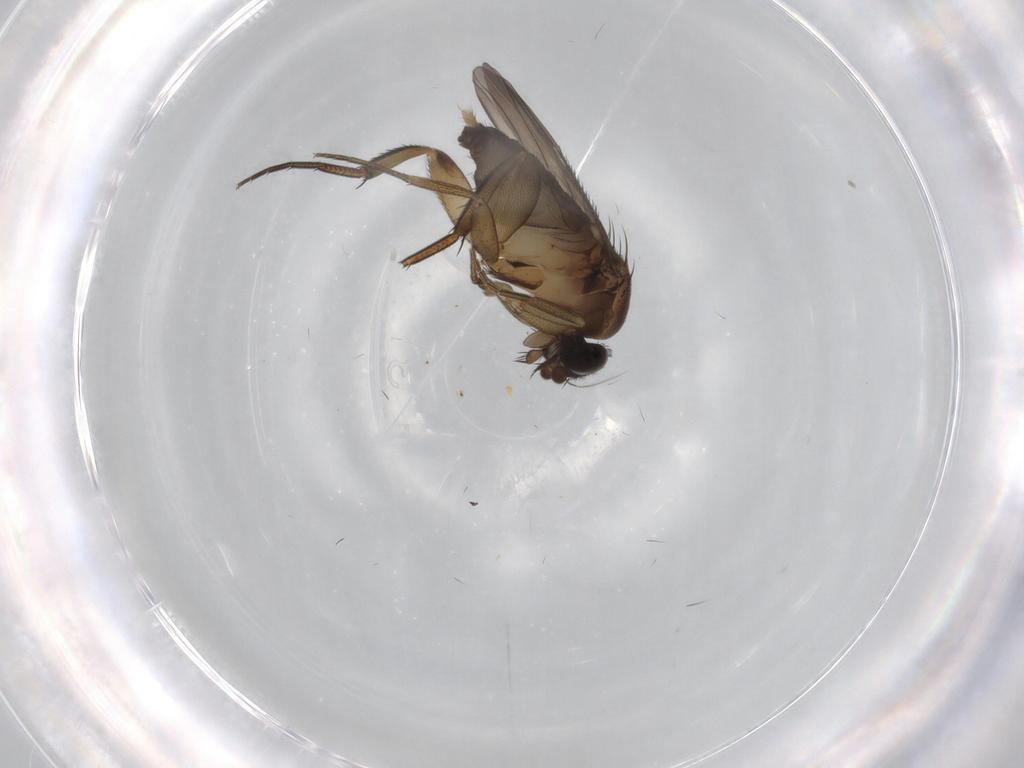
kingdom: Animalia
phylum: Arthropoda
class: Insecta
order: Diptera
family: Phoridae
